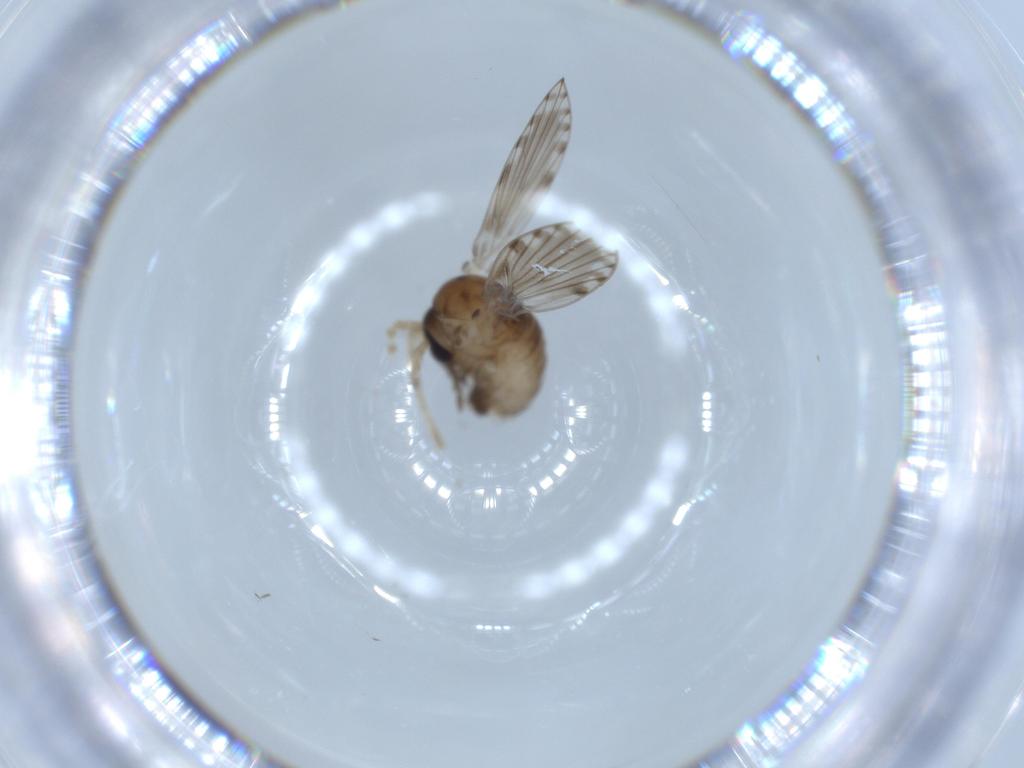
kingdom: Animalia
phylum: Arthropoda
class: Insecta
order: Diptera
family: Psychodidae
